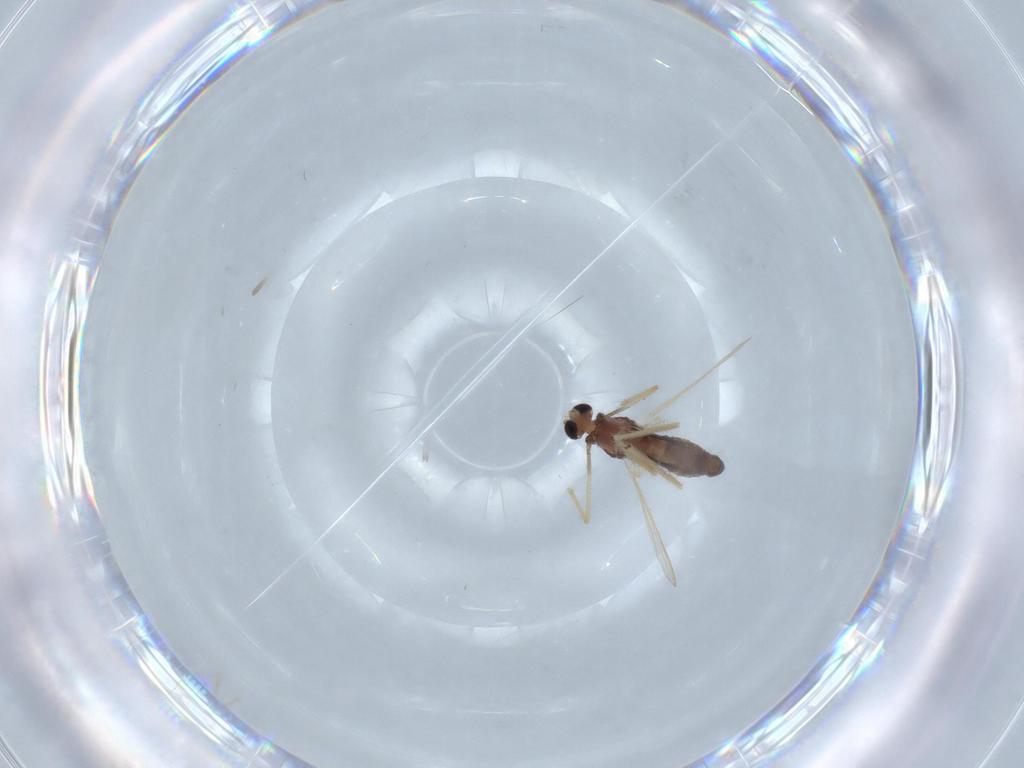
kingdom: Animalia
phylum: Arthropoda
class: Insecta
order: Diptera
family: Chironomidae
